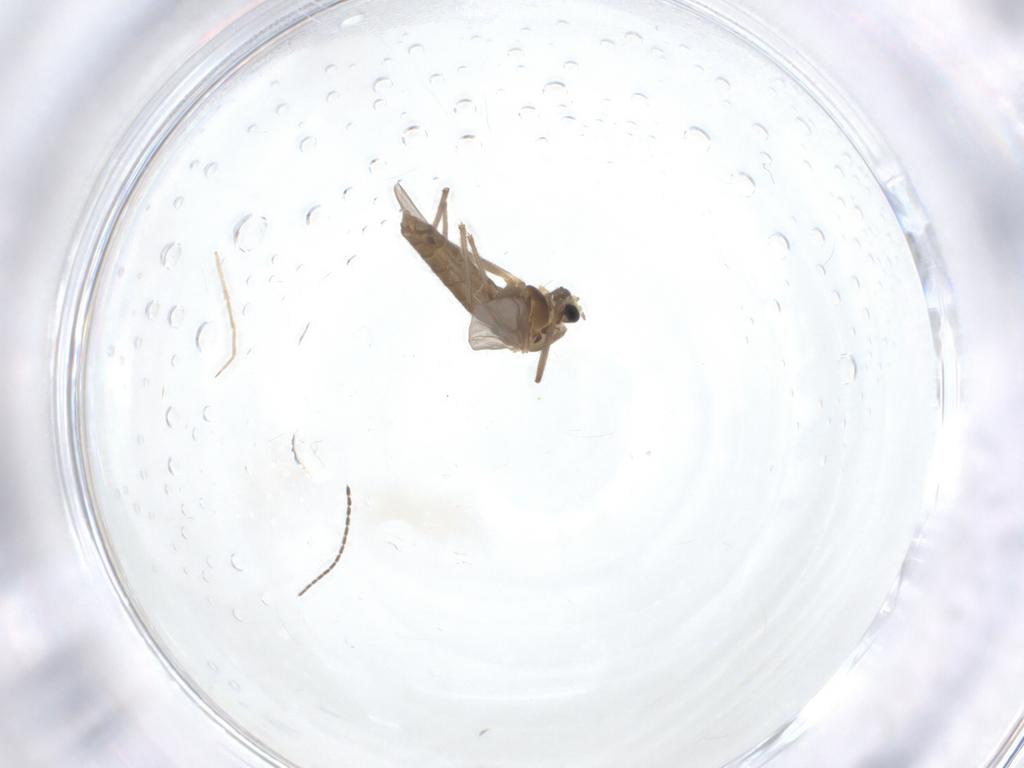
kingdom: Animalia
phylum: Arthropoda
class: Insecta
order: Diptera
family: Chironomidae
